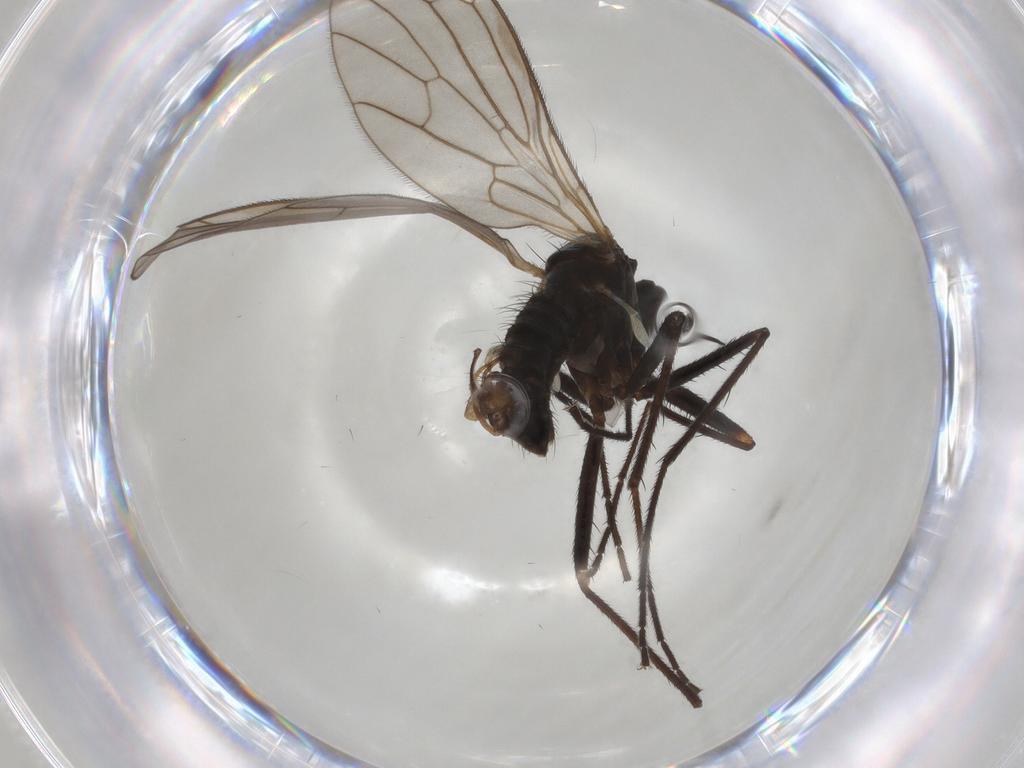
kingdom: Animalia
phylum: Arthropoda
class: Insecta
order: Diptera
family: Empididae
